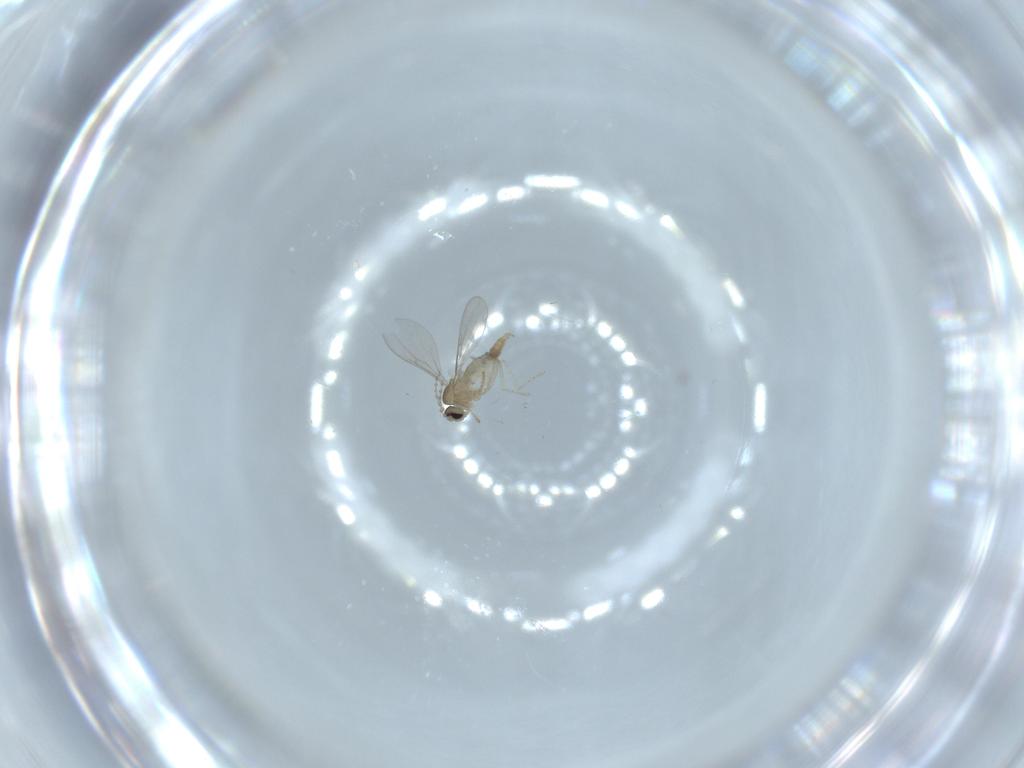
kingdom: Animalia
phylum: Arthropoda
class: Insecta
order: Diptera
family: Cecidomyiidae
